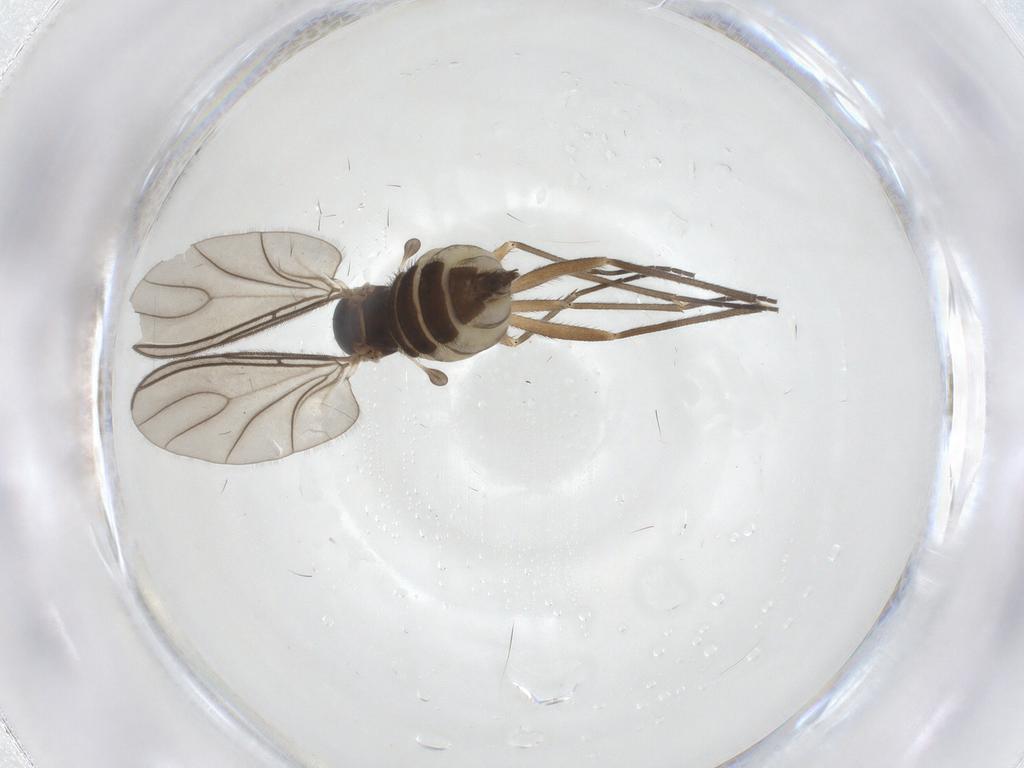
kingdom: Animalia
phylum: Arthropoda
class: Insecta
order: Diptera
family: Sciaridae
